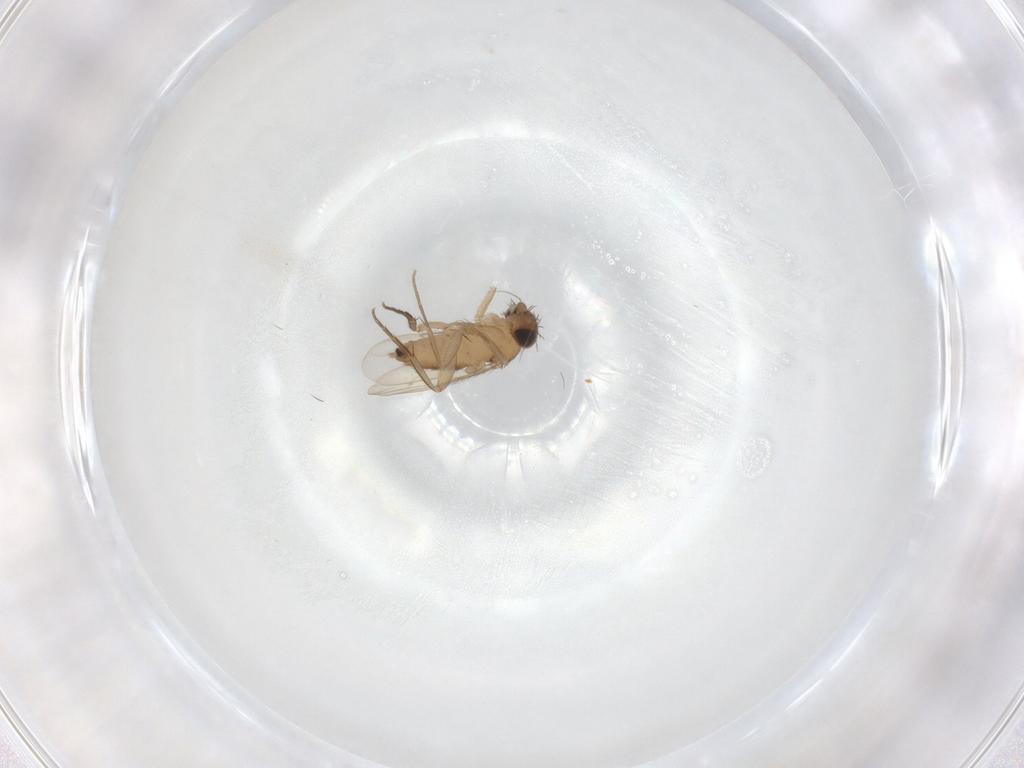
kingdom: Animalia
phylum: Arthropoda
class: Insecta
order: Diptera
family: Phoridae
